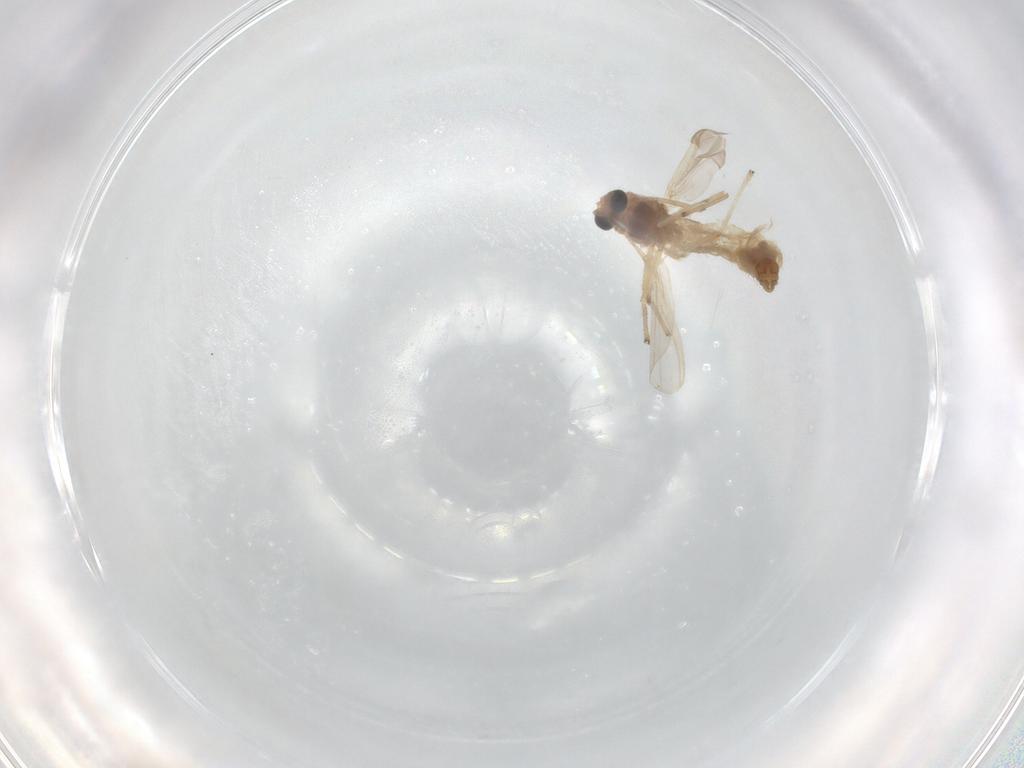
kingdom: Animalia
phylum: Arthropoda
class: Insecta
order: Diptera
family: Chironomidae
